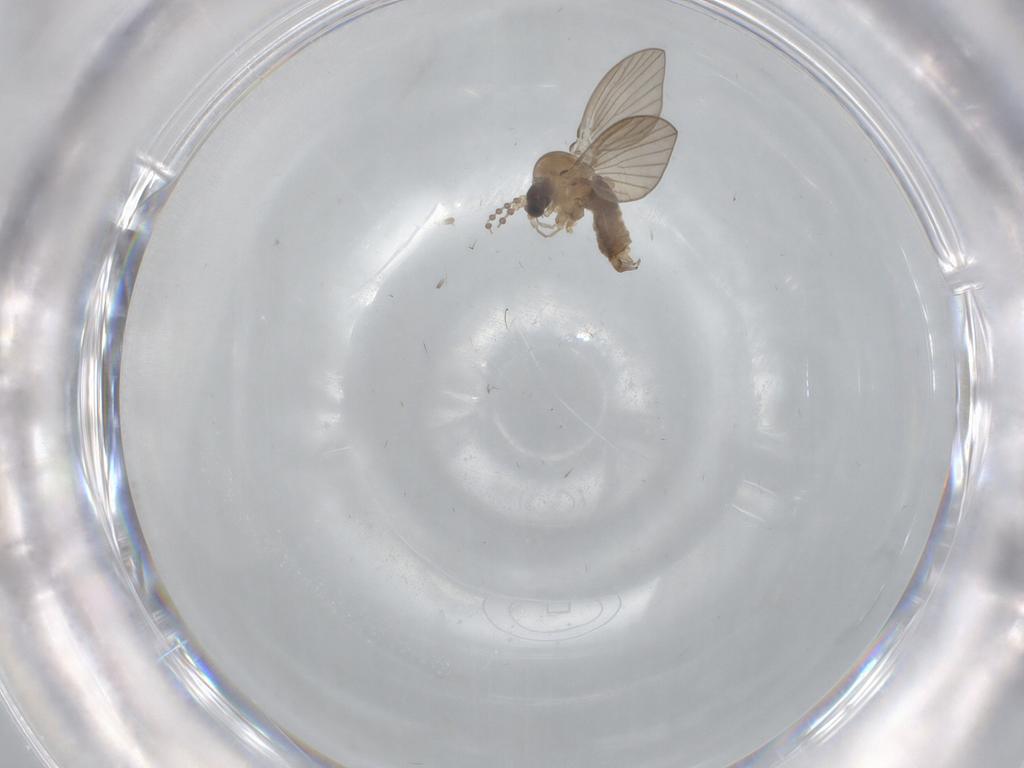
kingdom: Animalia
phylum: Arthropoda
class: Insecta
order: Diptera
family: Psychodidae
